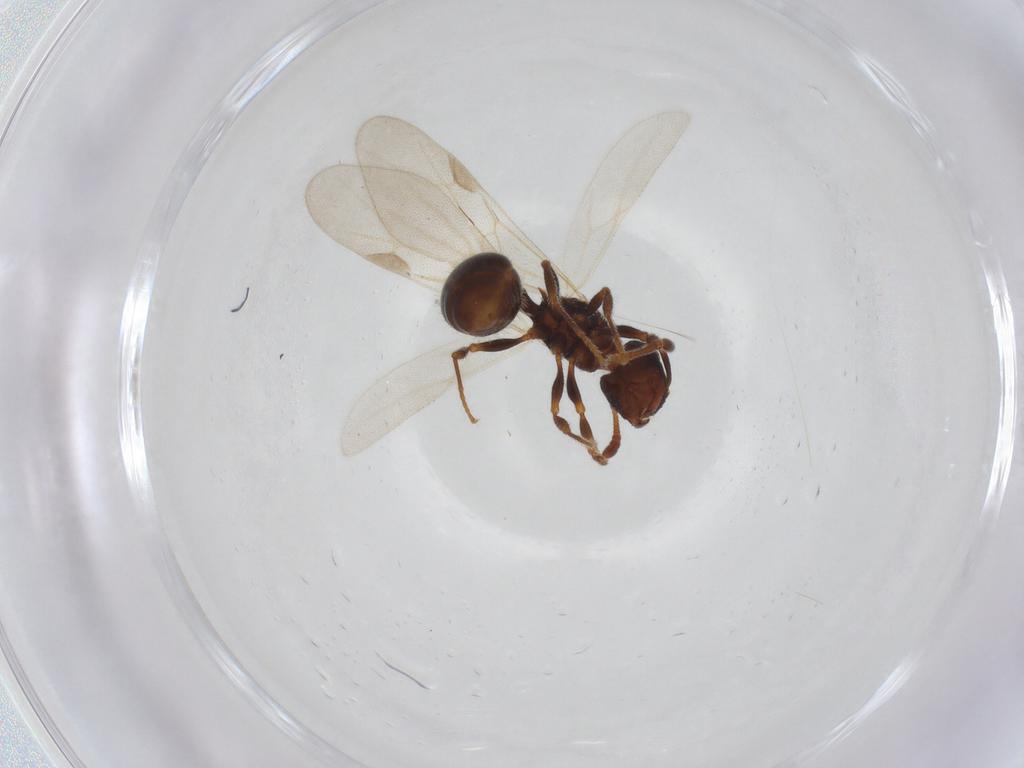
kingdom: Animalia
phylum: Arthropoda
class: Insecta
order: Hymenoptera
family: Formicidae
